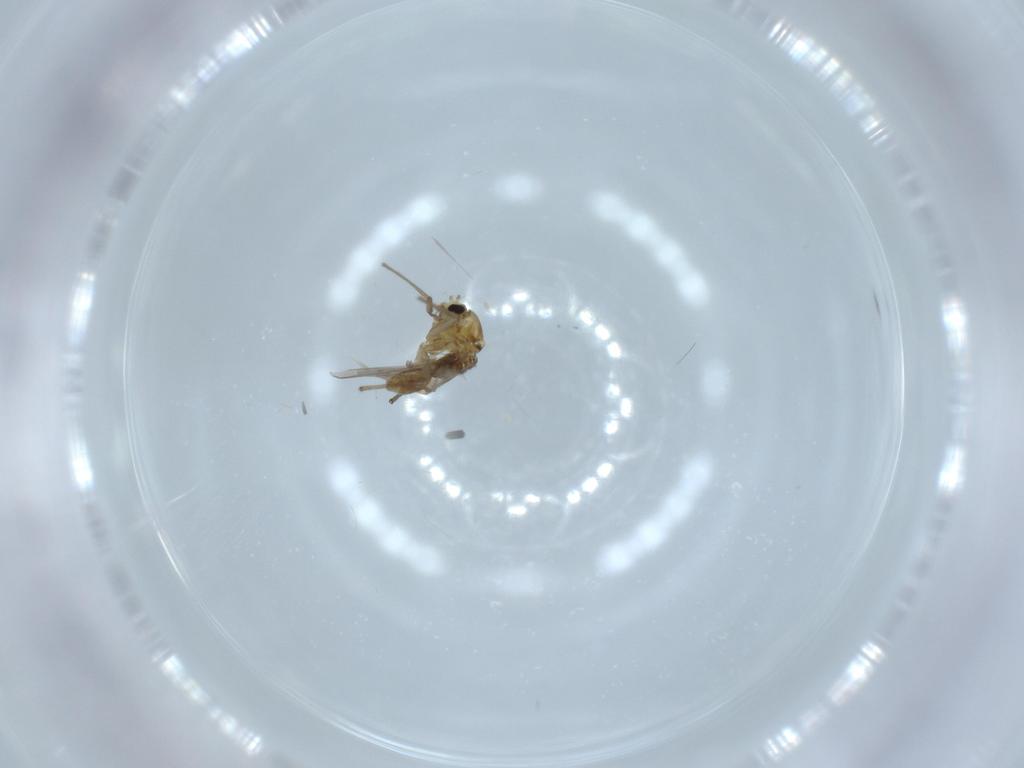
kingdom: Animalia
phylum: Arthropoda
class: Insecta
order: Diptera
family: Chironomidae
